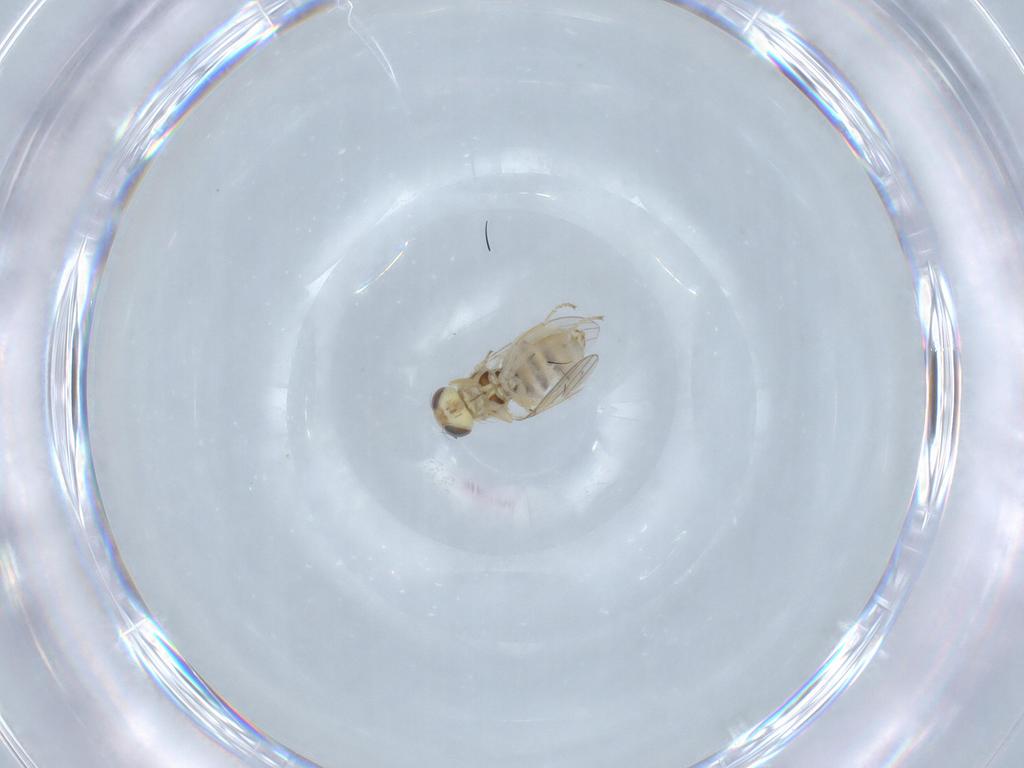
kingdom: Animalia
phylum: Arthropoda
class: Insecta
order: Diptera
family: Chyromyidae
